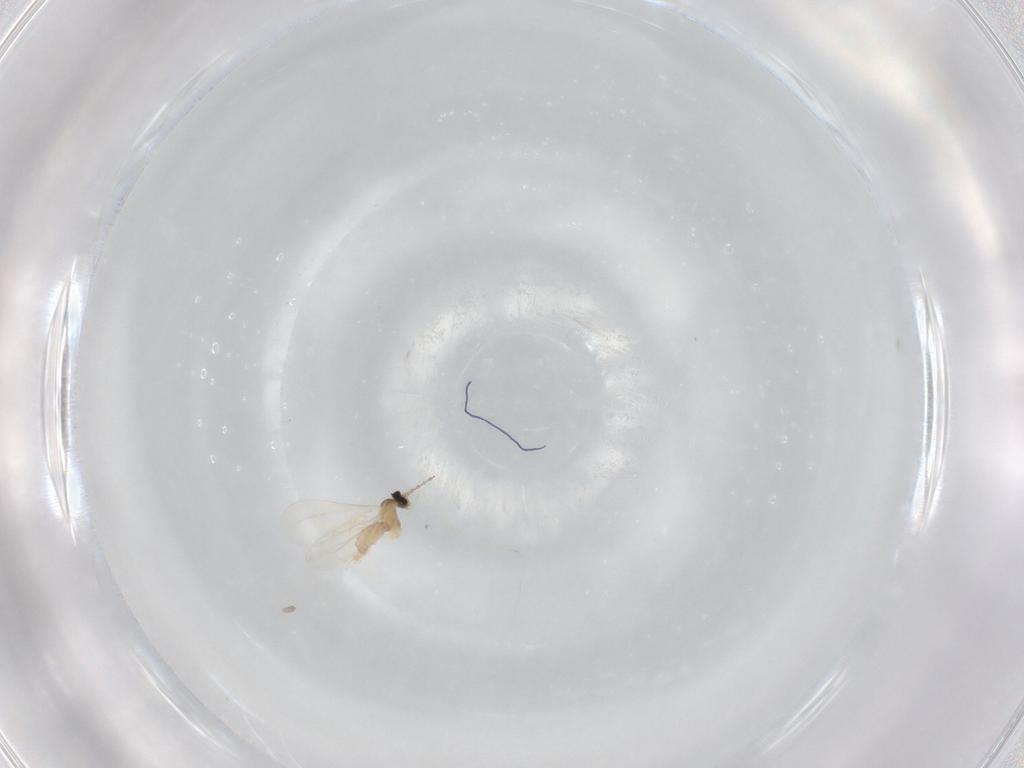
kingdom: Animalia
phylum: Arthropoda
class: Insecta
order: Diptera
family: Cecidomyiidae
